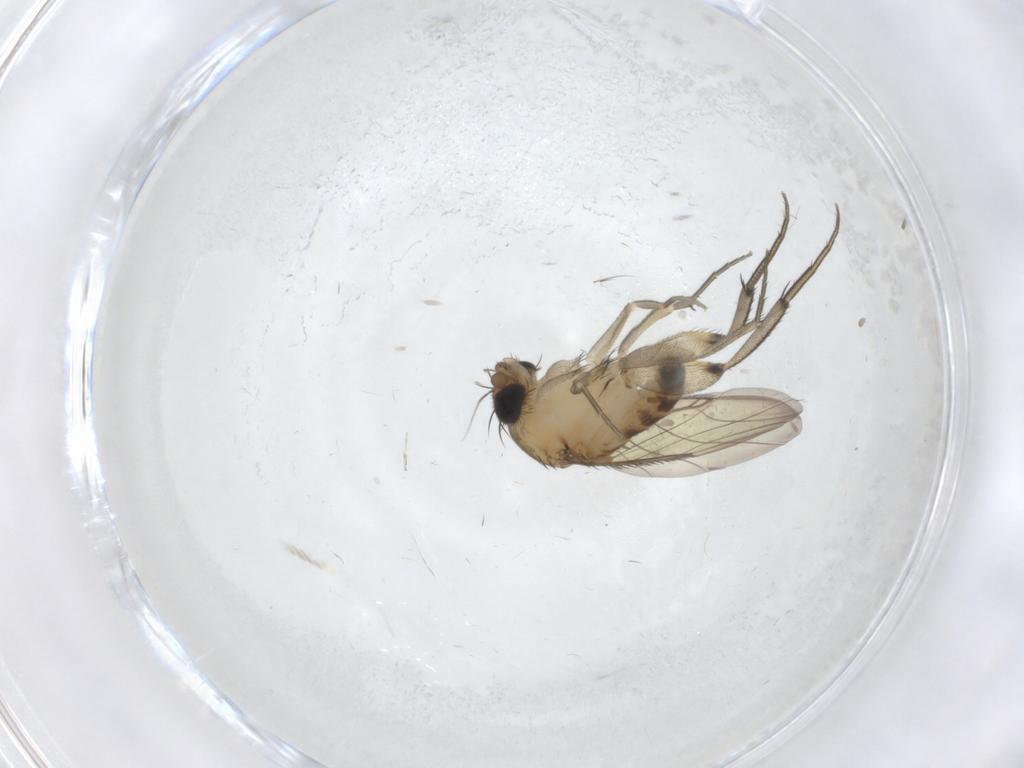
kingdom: Animalia
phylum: Arthropoda
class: Insecta
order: Diptera
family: Phoridae
